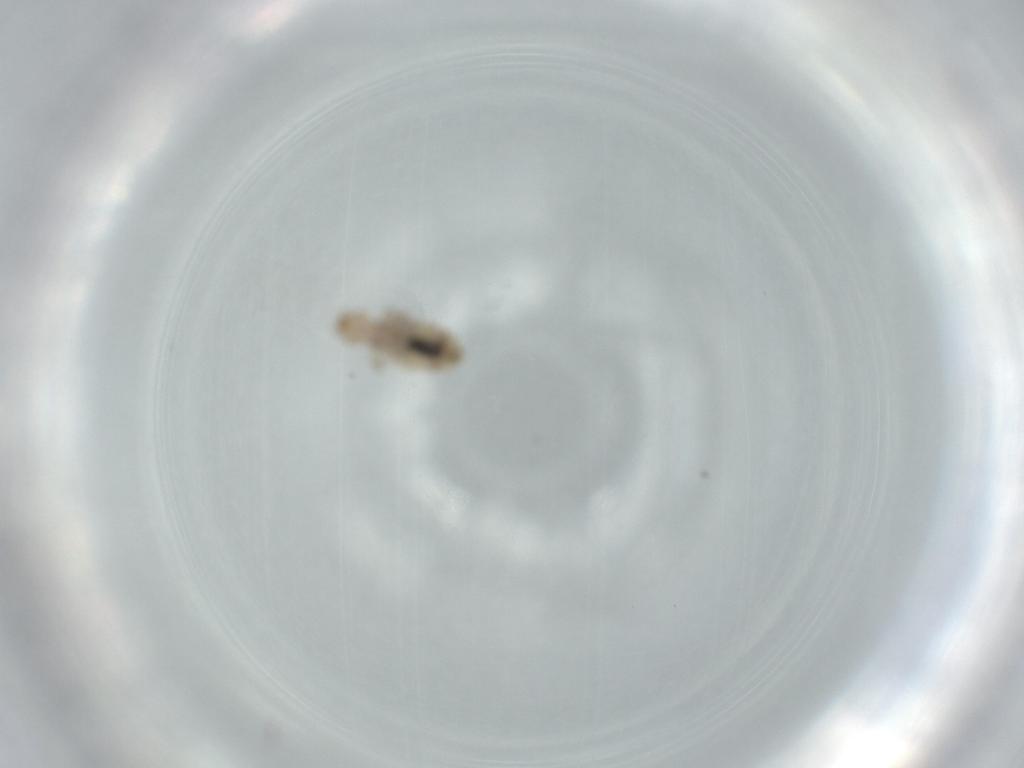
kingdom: Animalia
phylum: Arthropoda
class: Insecta
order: Psocodea
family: Liposcelididae
